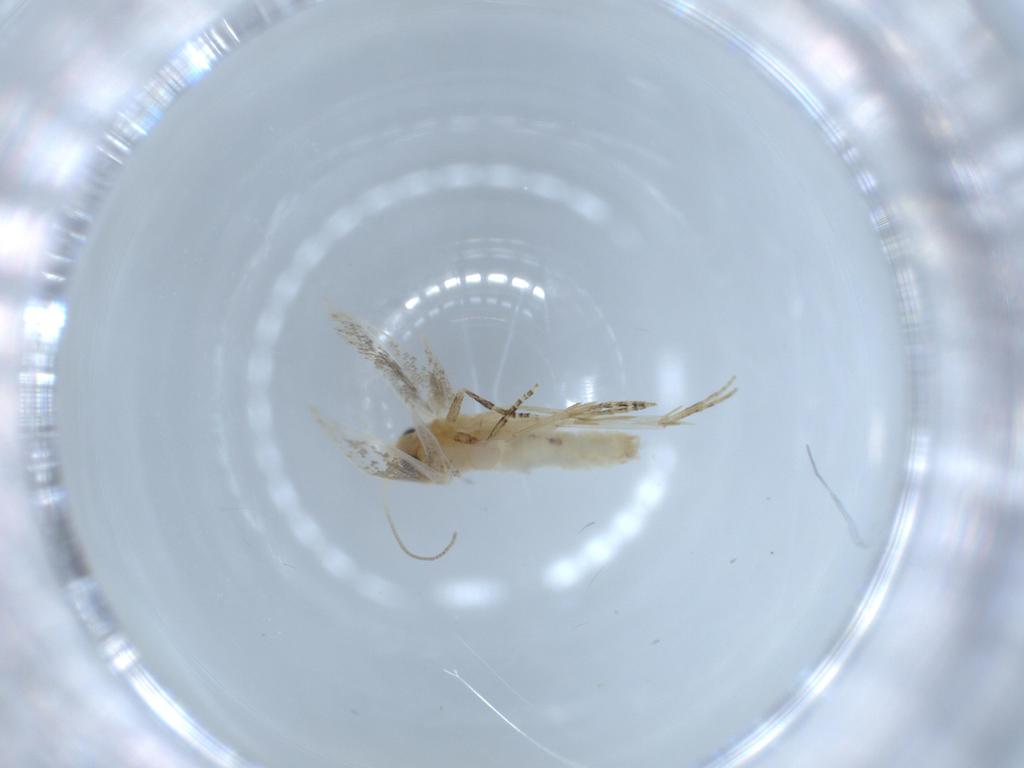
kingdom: Animalia
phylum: Arthropoda
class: Insecta
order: Lepidoptera
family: Bucculatricidae
